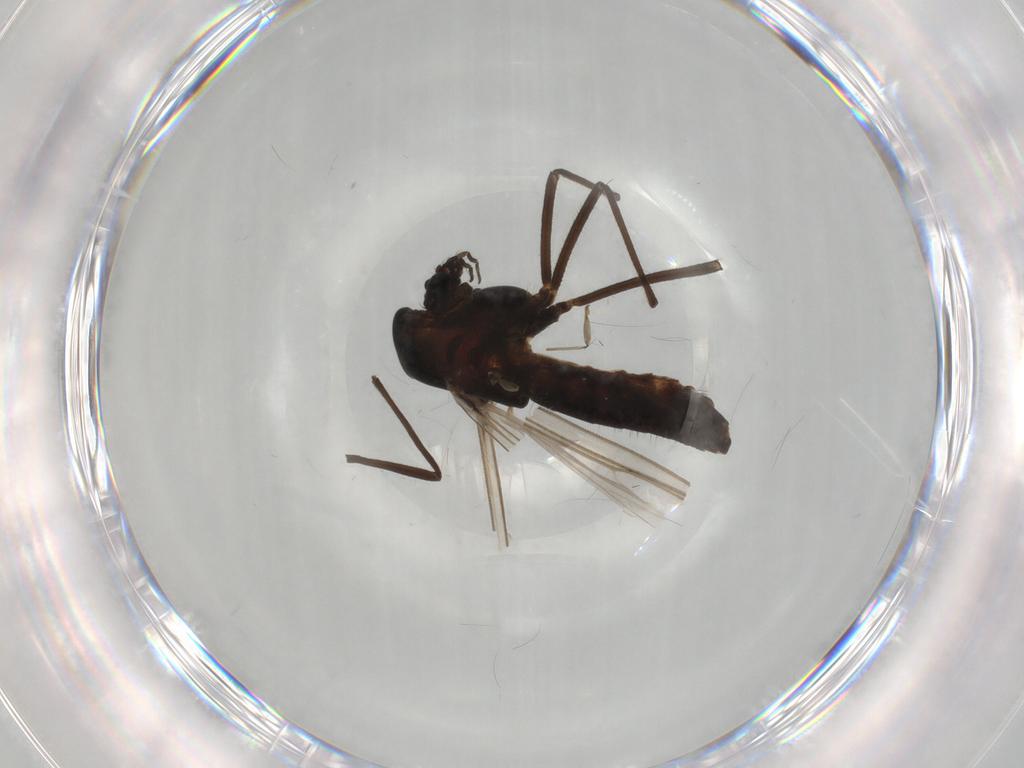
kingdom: Animalia
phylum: Arthropoda
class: Insecta
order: Diptera
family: Chironomidae
